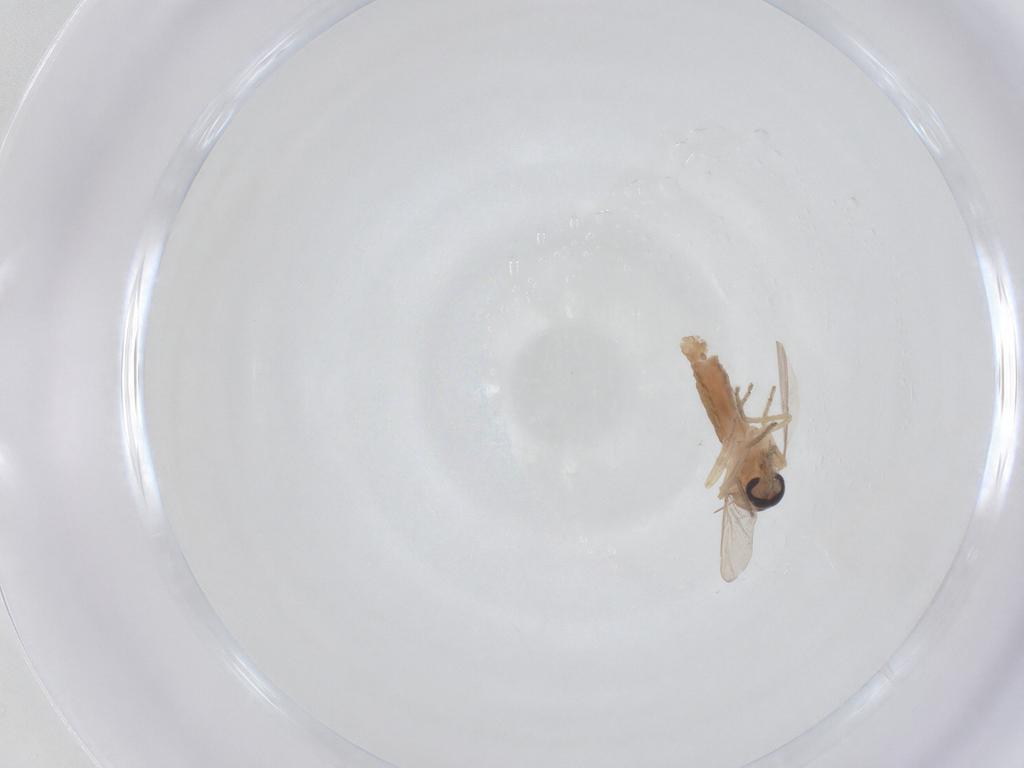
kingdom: Animalia
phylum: Arthropoda
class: Insecta
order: Diptera
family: Ceratopogonidae
